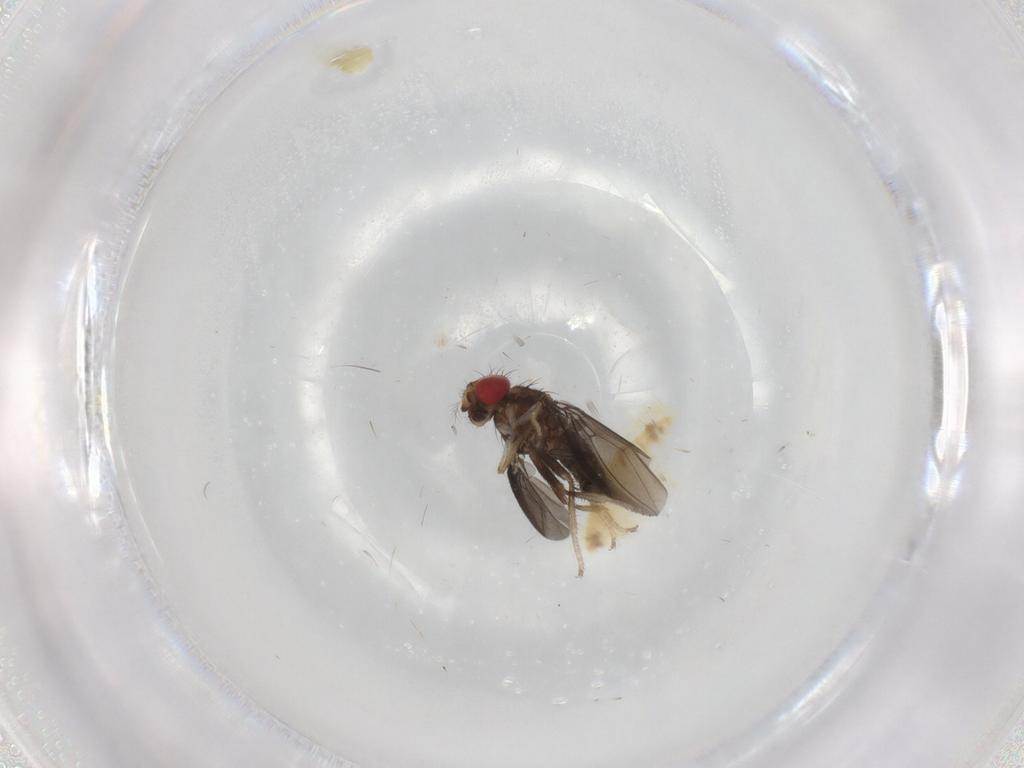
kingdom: Animalia
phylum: Arthropoda
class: Insecta
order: Diptera
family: Drosophilidae
